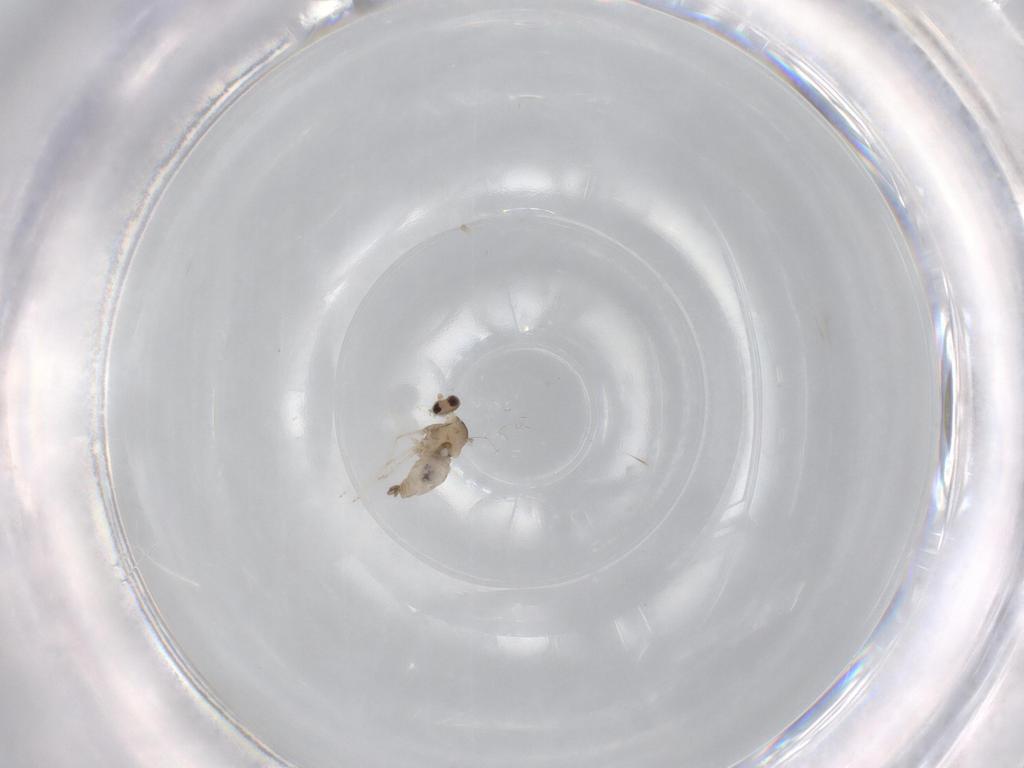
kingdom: Animalia
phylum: Arthropoda
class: Insecta
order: Diptera
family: Cecidomyiidae
